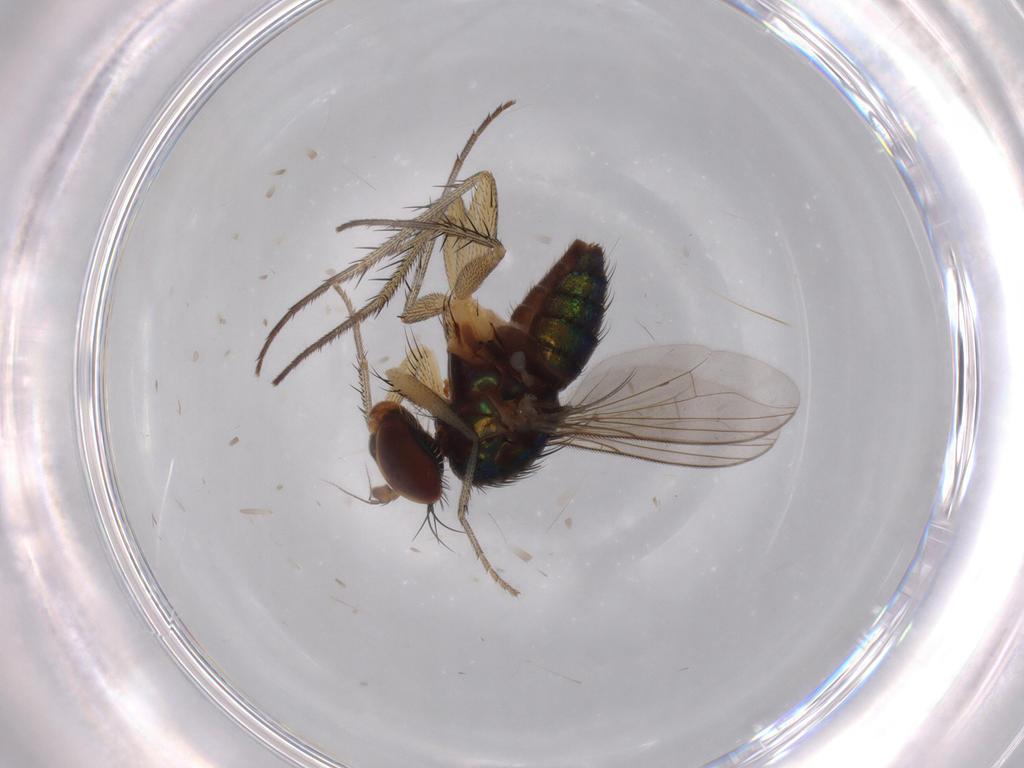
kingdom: Animalia
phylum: Arthropoda
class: Insecta
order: Diptera
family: Dolichopodidae
